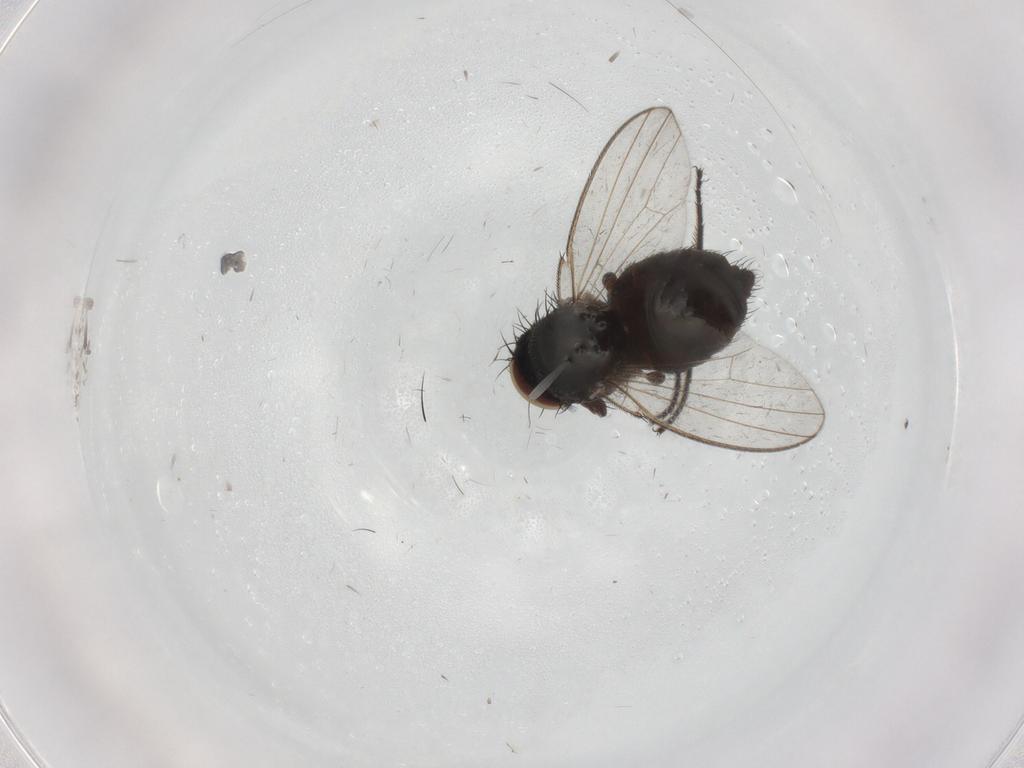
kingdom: Animalia
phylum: Arthropoda
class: Insecta
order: Diptera
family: Milichiidae
